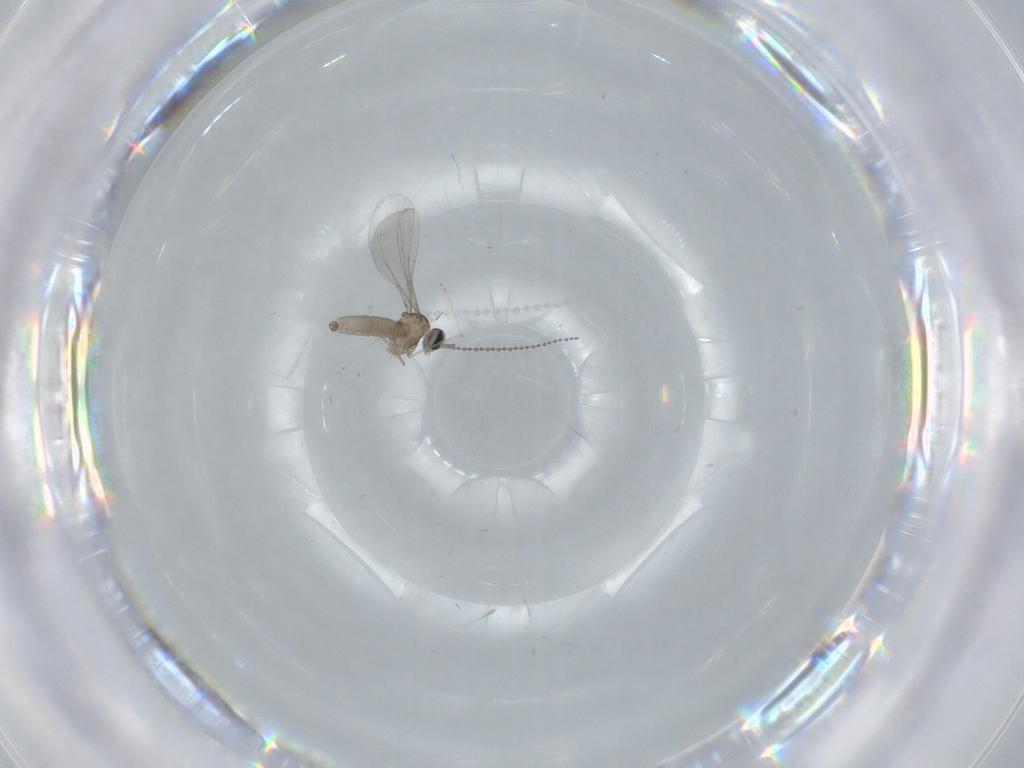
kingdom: Animalia
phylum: Arthropoda
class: Insecta
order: Diptera
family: Cecidomyiidae
